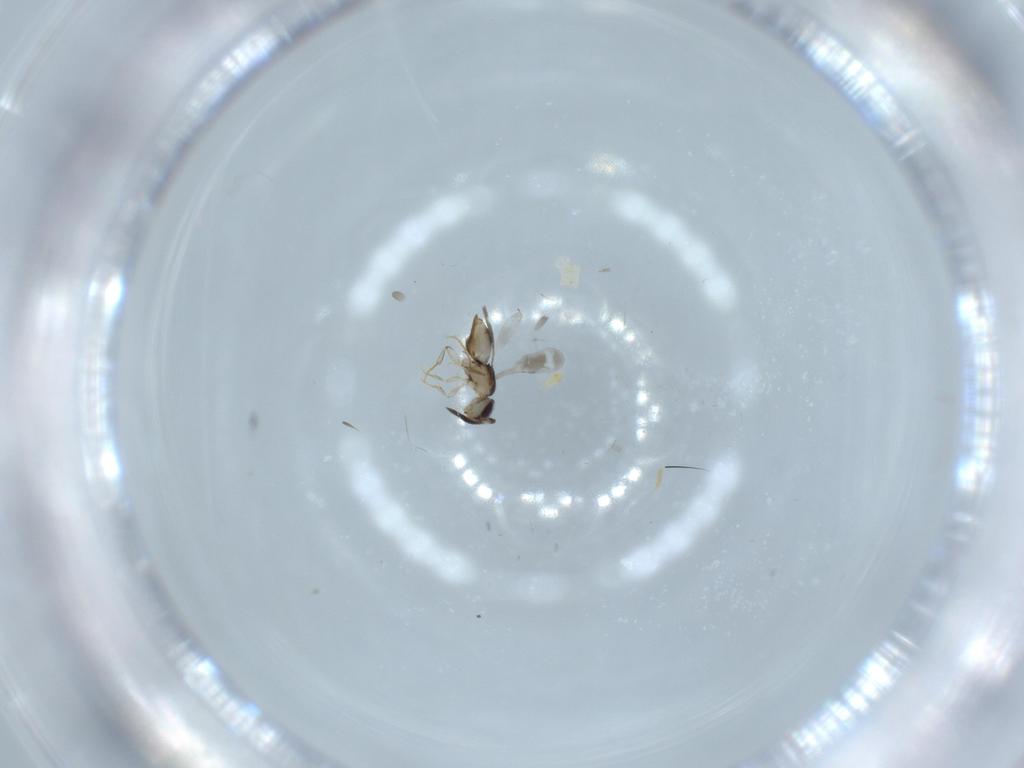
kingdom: Animalia
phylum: Arthropoda
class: Insecta
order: Hymenoptera
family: Mymaridae
